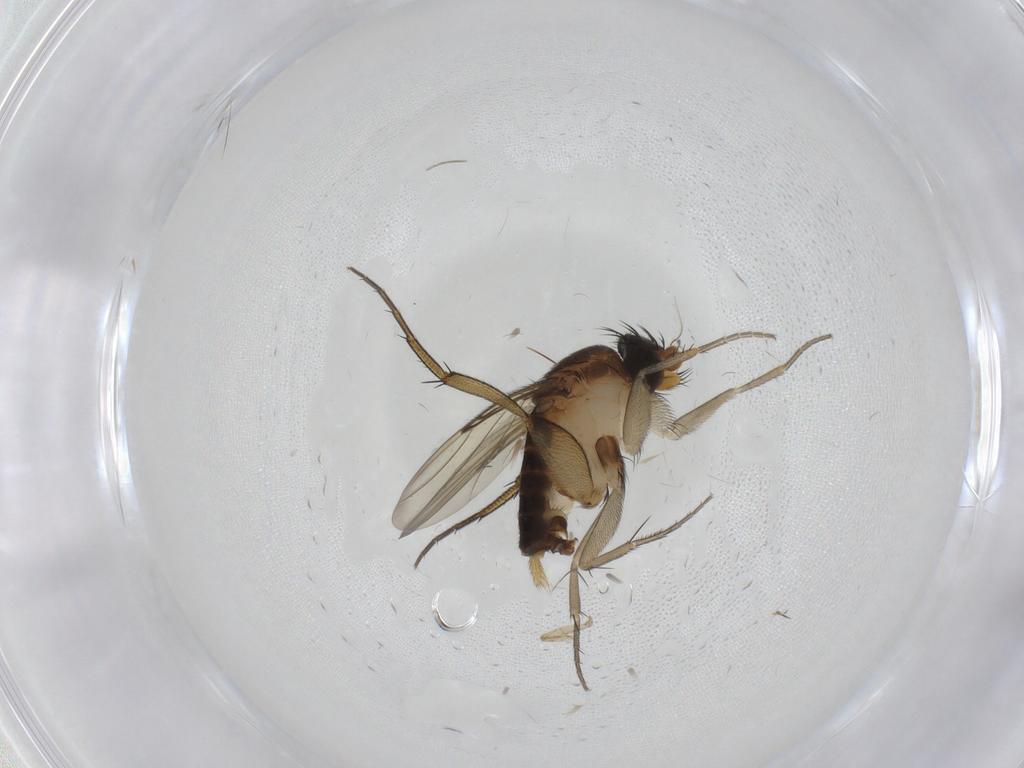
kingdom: Animalia
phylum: Arthropoda
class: Insecta
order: Diptera
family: Phoridae
